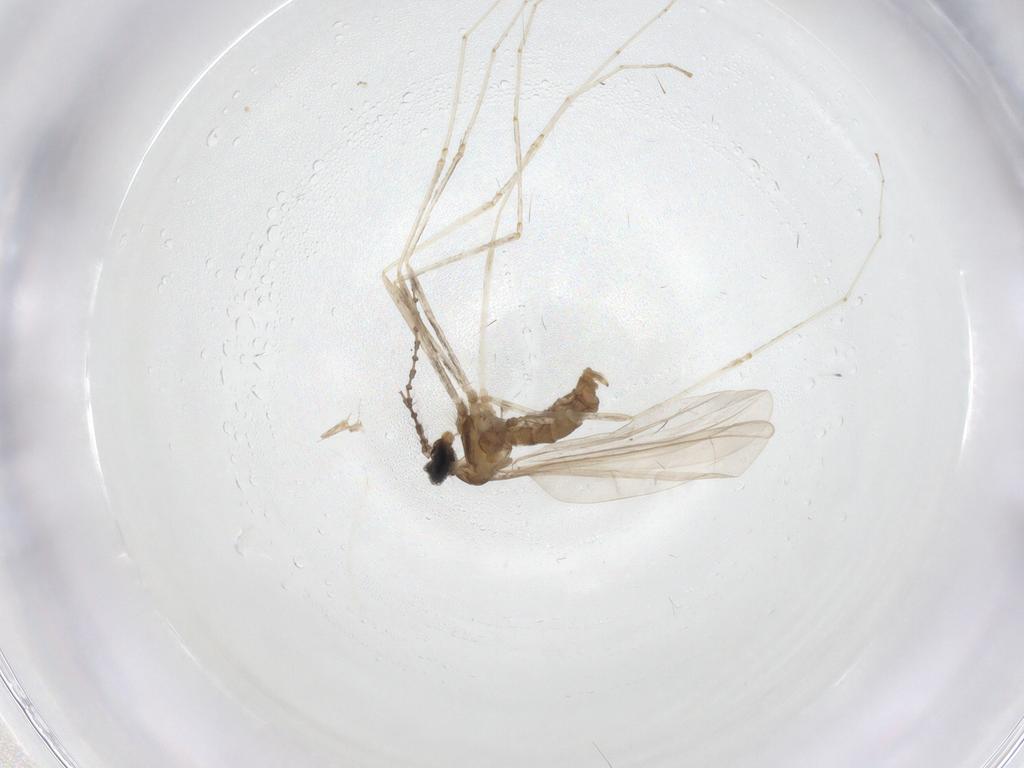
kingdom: Animalia
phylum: Arthropoda
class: Insecta
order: Diptera
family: Cecidomyiidae
